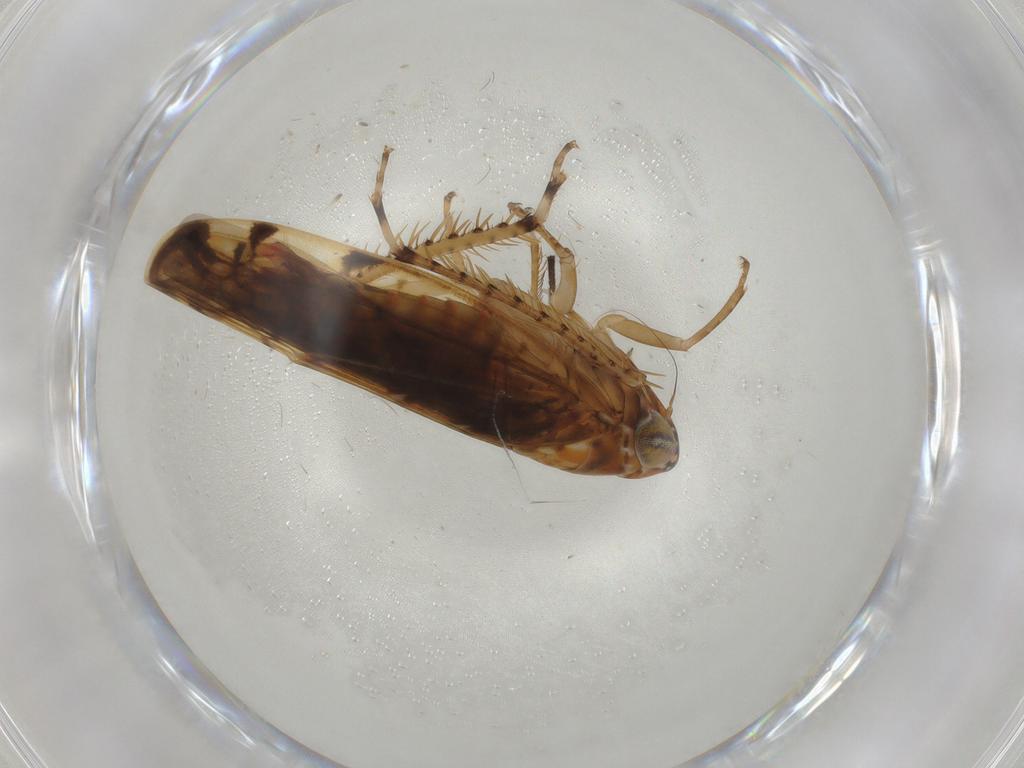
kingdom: Animalia
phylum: Arthropoda
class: Insecta
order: Hemiptera
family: Cicadellidae
